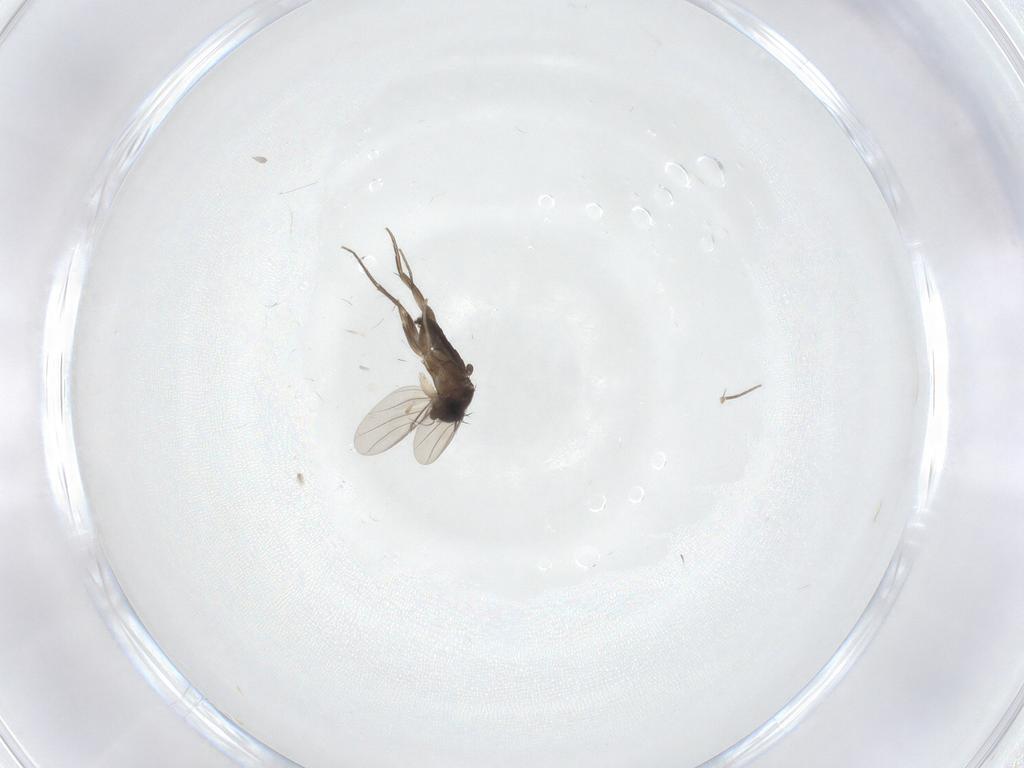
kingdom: Animalia
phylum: Arthropoda
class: Insecta
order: Diptera
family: Phoridae
